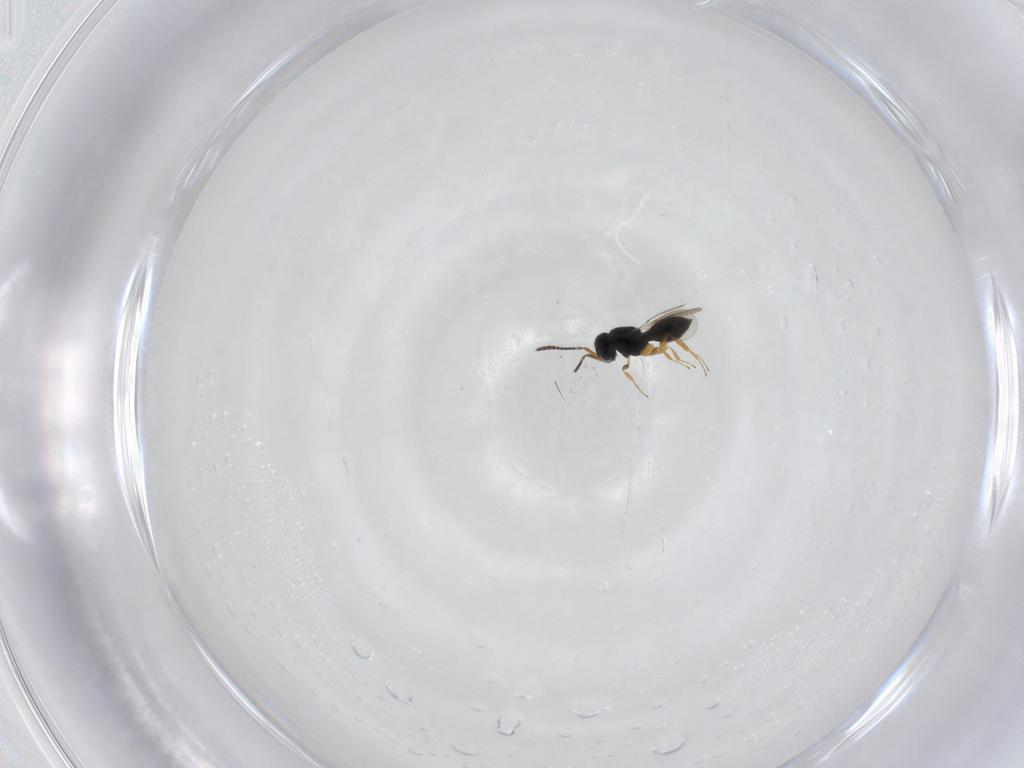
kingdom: Animalia
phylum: Arthropoda
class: Insecta
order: Hymenoptera
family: Scelionidae
